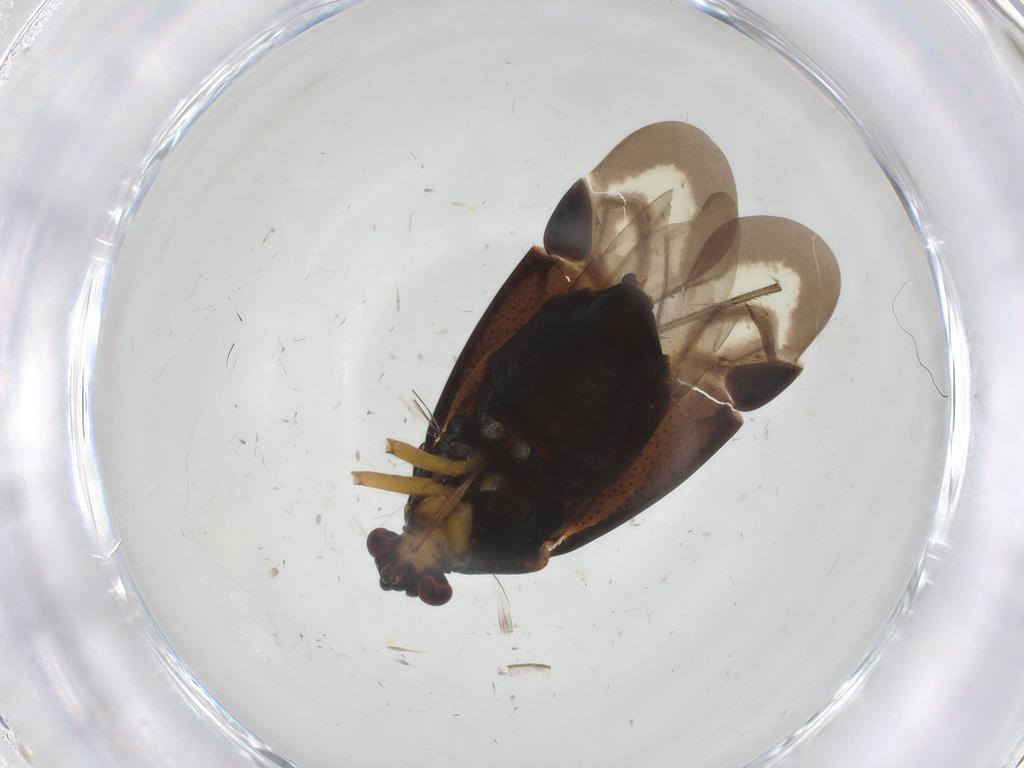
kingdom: Animalia
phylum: Arthropoda
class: Insecta
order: Hemiptera
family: Miridae
